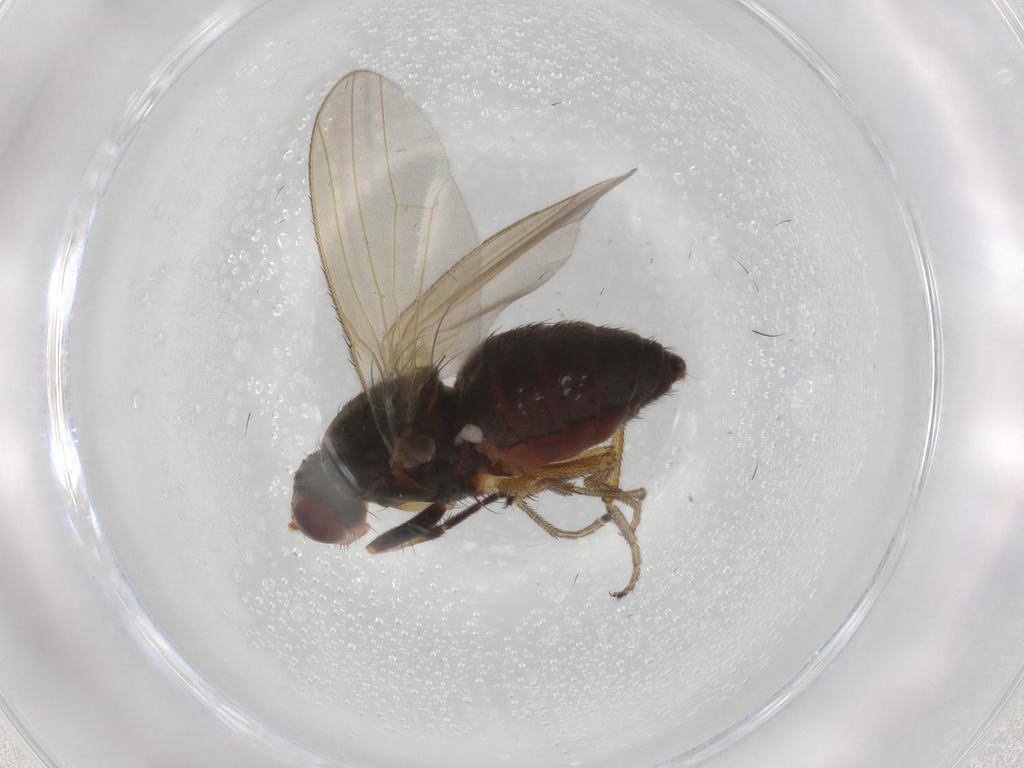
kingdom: Animalia
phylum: Arthropoda
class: Insecta
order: Diptera
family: Ulidiidae
